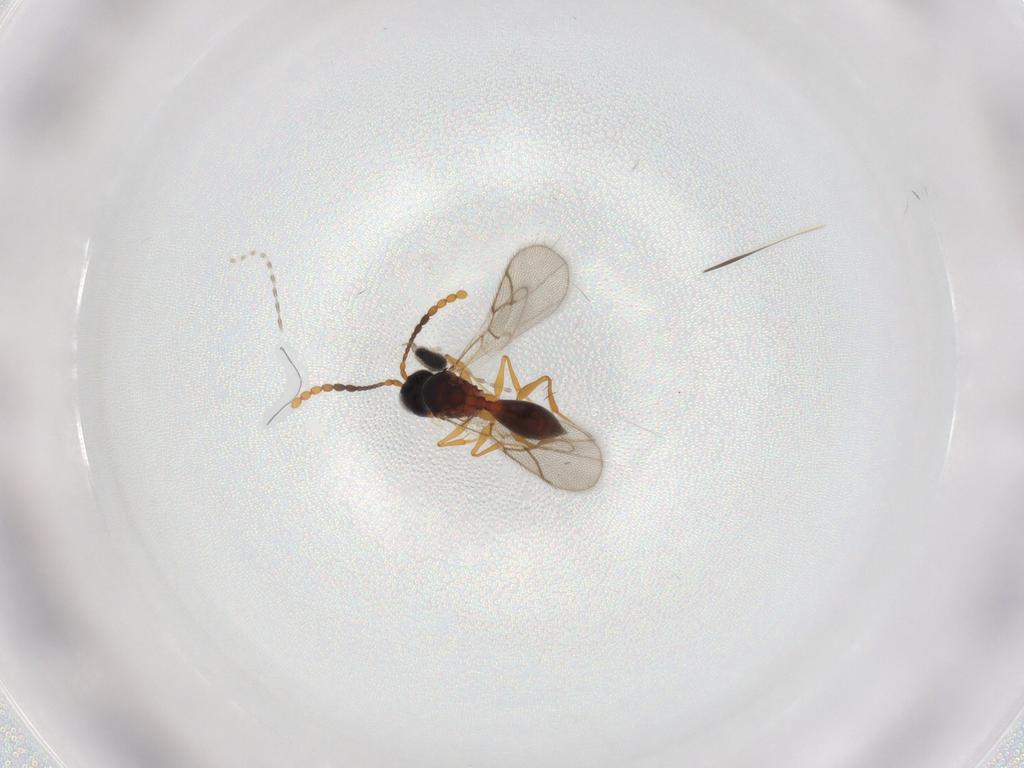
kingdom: Animalia
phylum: Arthropoda
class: Insecta
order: Hymenoptera
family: Figitidae
